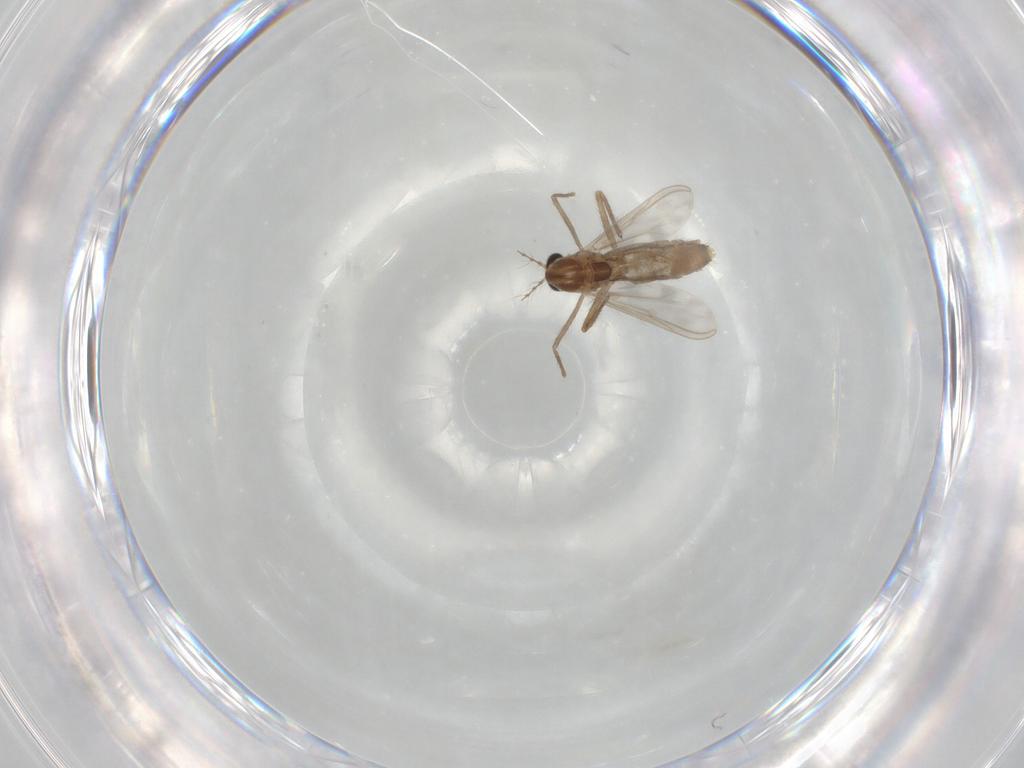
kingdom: Animalia
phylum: Arthropoda
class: Insecta
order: Diptera
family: Chironomidae
